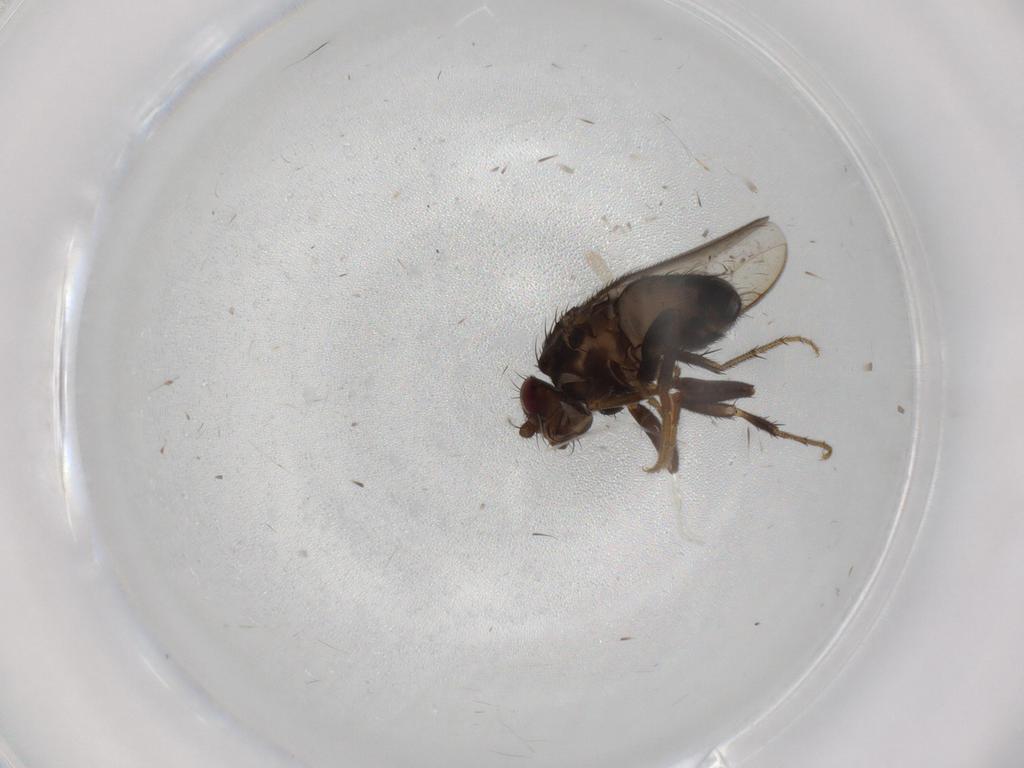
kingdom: Animalia
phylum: Arthropoda
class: Insecta
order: Diptera
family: Sphaeroceridae
